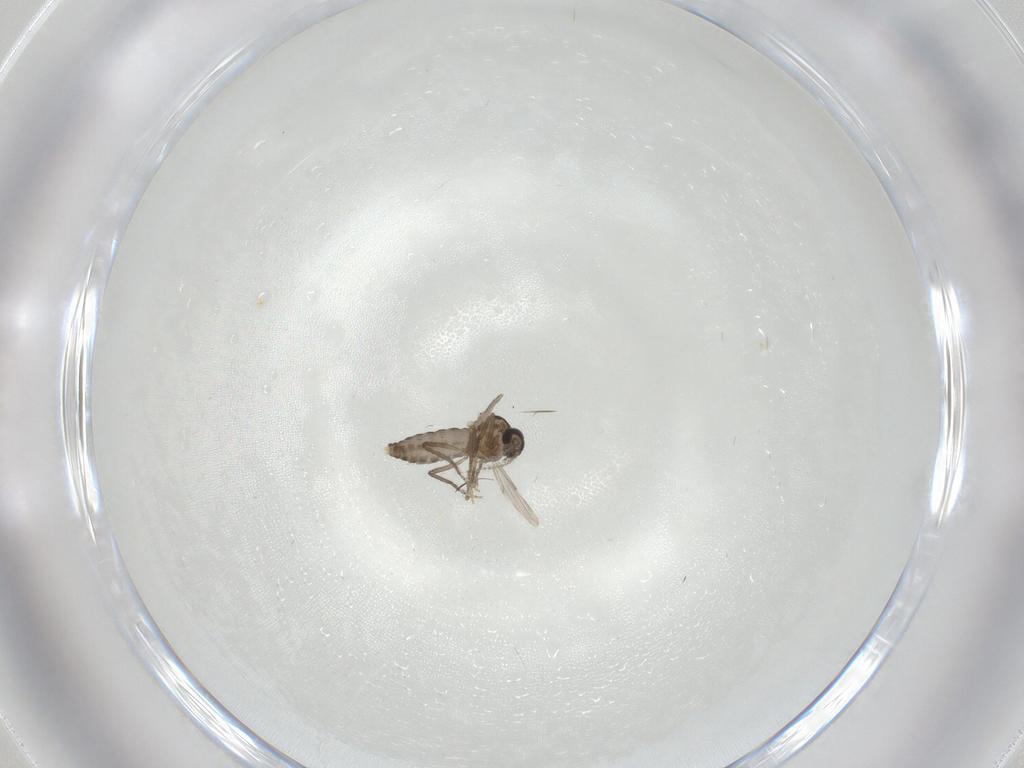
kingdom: Animalia
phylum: Arthropoda
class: Insecta
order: Diptera
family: Ceratopogonidae
